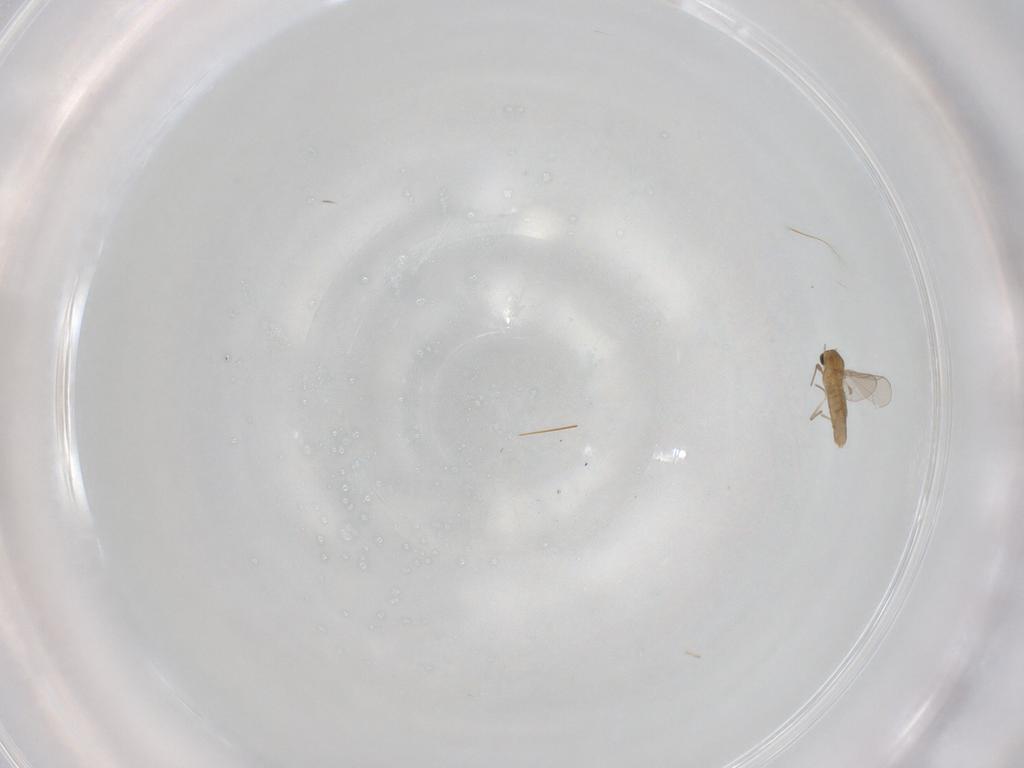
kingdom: Animalia
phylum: Arthropoda
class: Insecta
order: Diptera
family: Chironomidae
